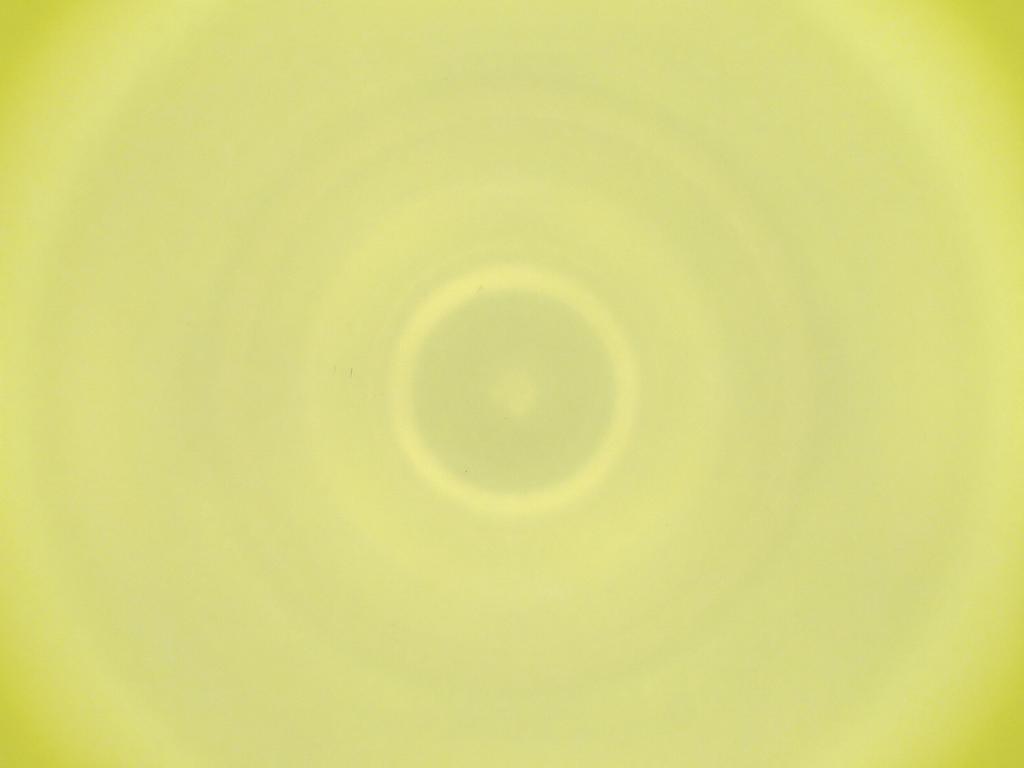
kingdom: Animalia
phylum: Arthropoda
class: Insecta
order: Diptera
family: Cecidomyiidae
